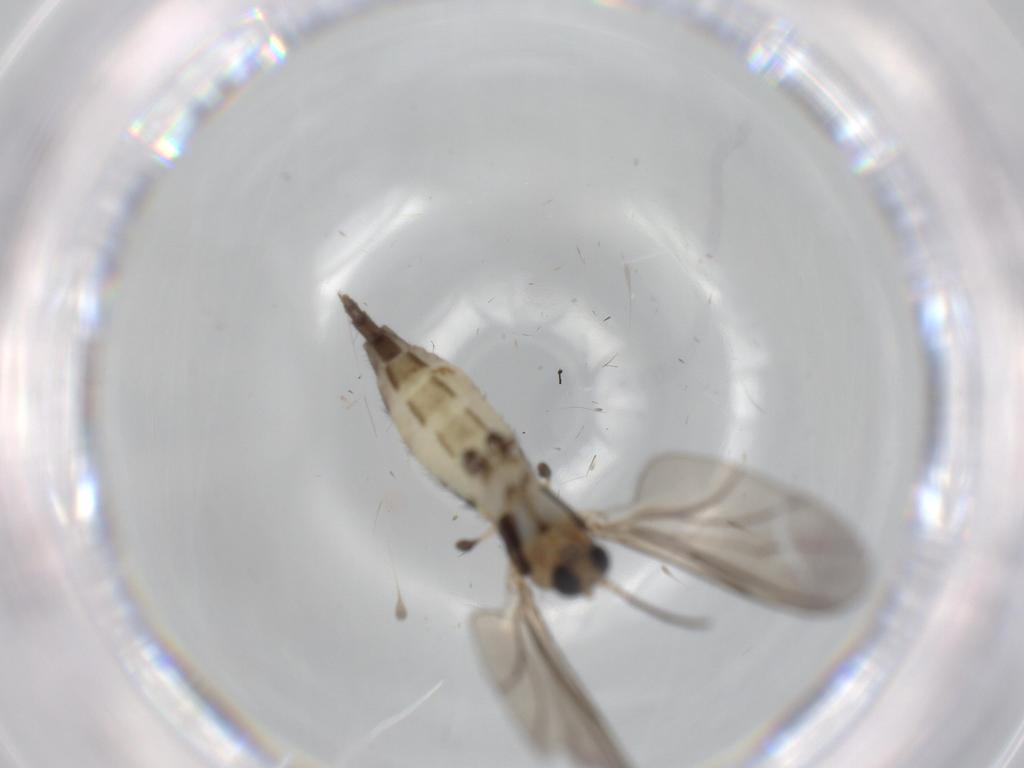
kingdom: Animalia
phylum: Arthropoda
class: Insecta
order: Diptera
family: Sciaridae
